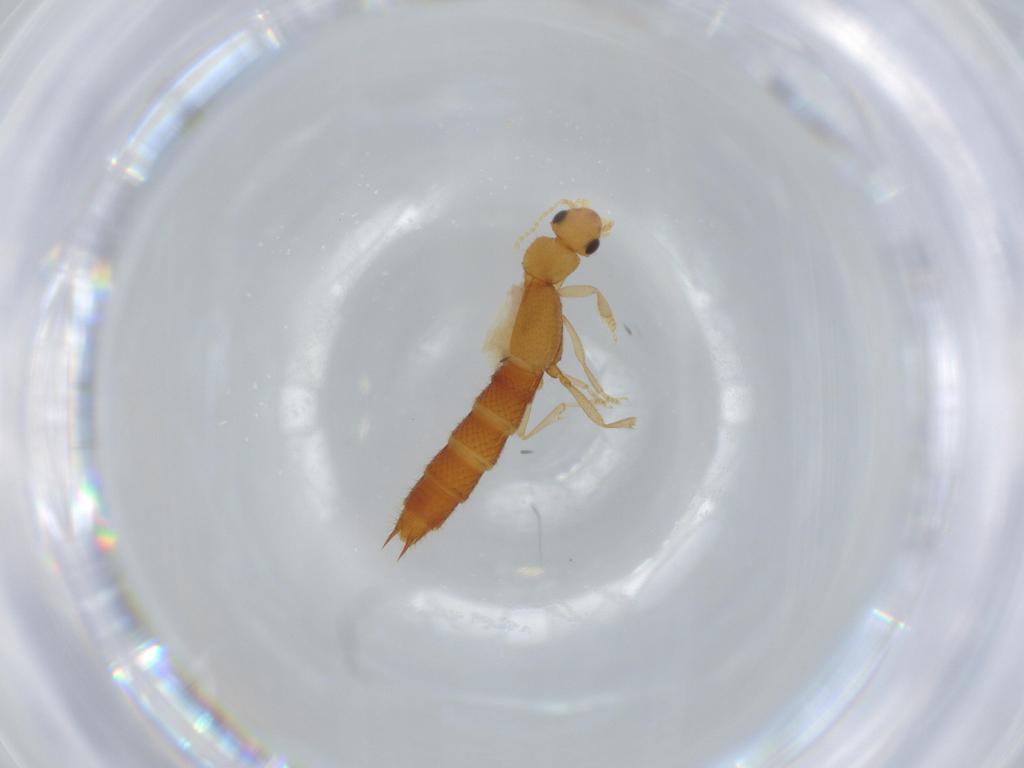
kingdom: Animalia
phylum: Arthropoda
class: Insecta
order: Coleoptera
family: Staphylinidae
